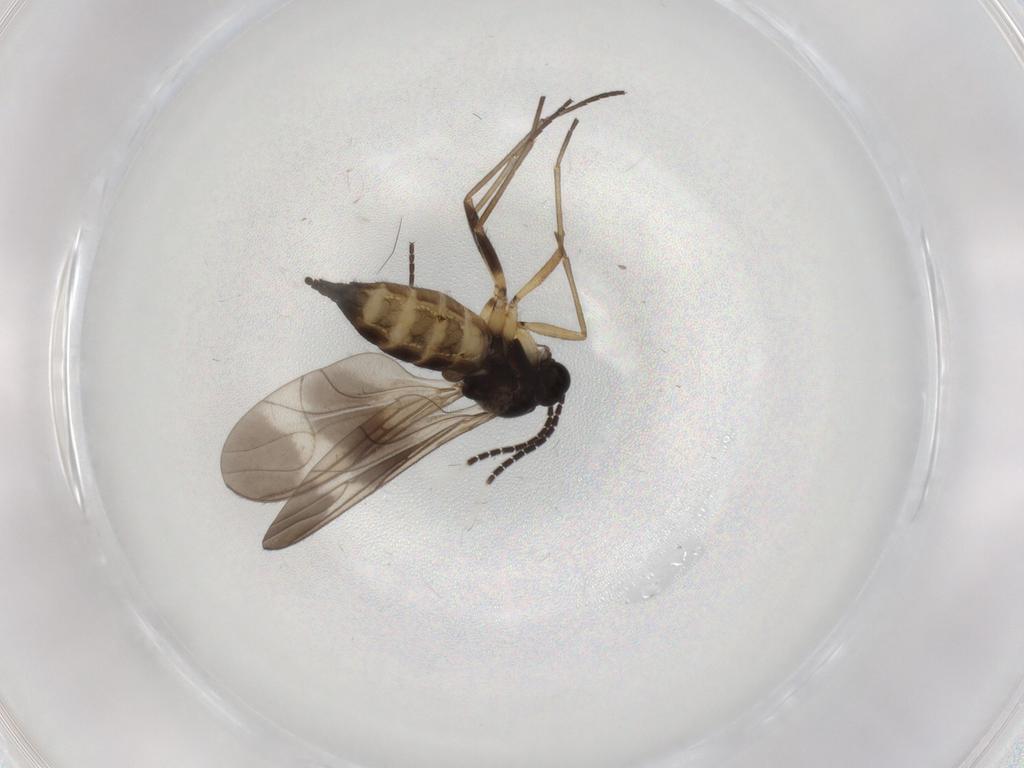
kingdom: Animalia
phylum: Arthropoda
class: Insecta
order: Diptera
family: Sciaridae
